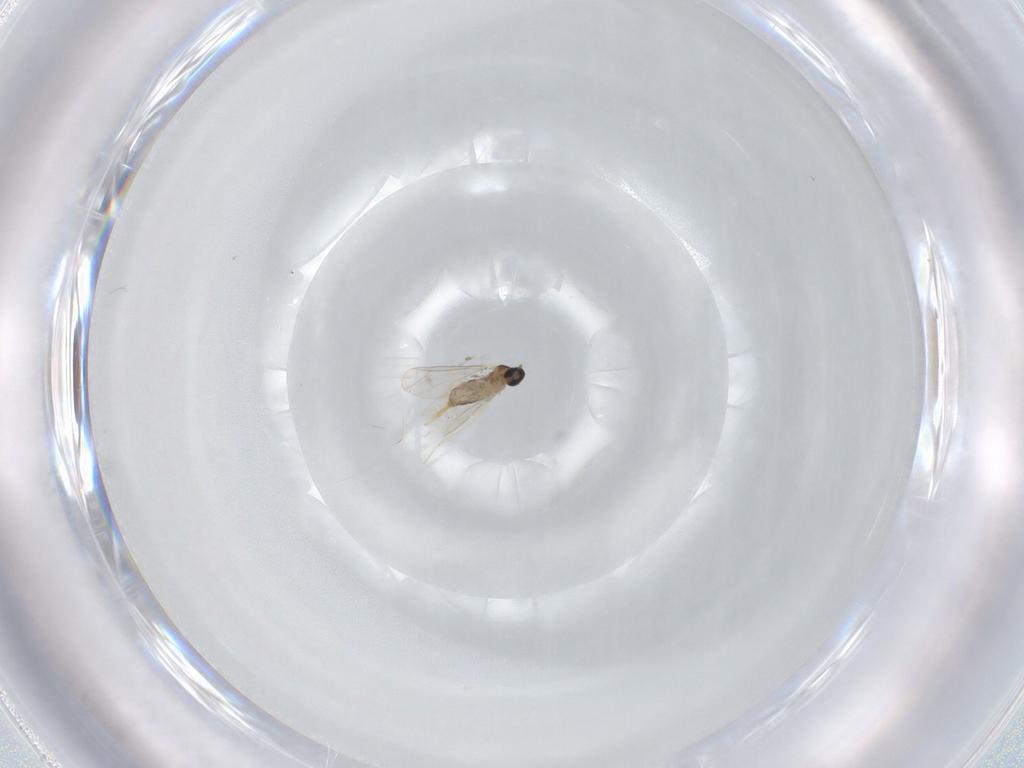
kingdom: Animalia
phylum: Arthropoda
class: Insecta
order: Diptera
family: Cecidomyiidae
